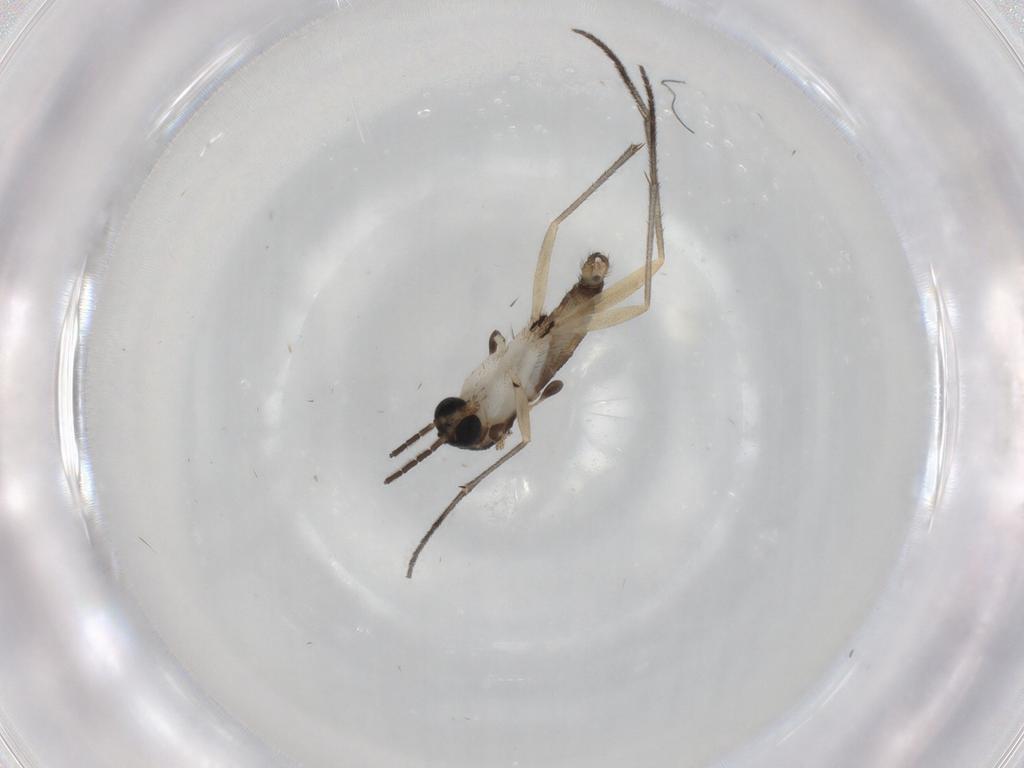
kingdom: Animalia
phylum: Arthropoda
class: Insecta
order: Diptera
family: Sciaridae
